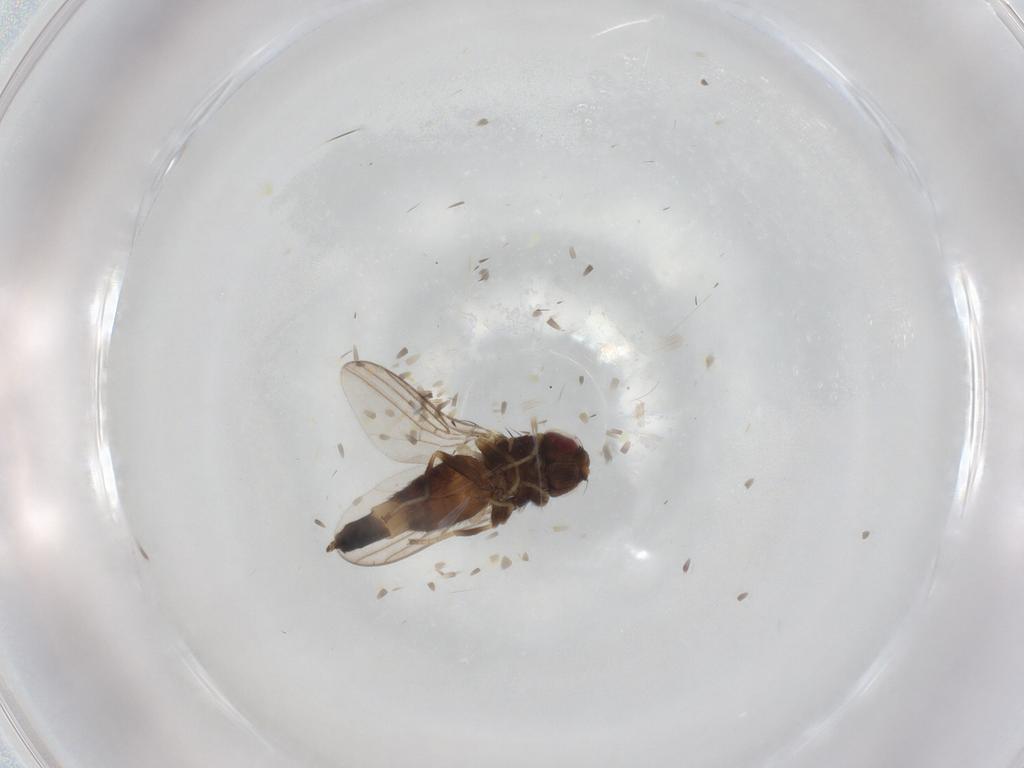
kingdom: Animalia
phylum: Arthropoda
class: Insecta
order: Diptera
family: Chloropidae
